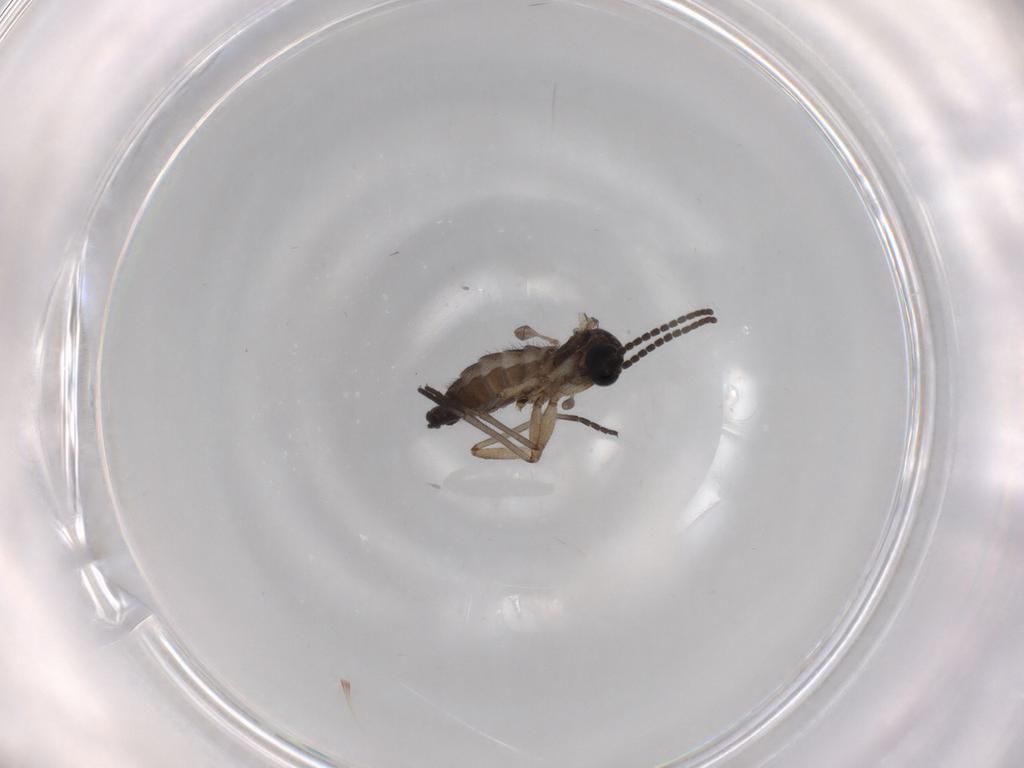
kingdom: Animalia
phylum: Arthropoda
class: Insecta
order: Diptera
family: Sciaridae
